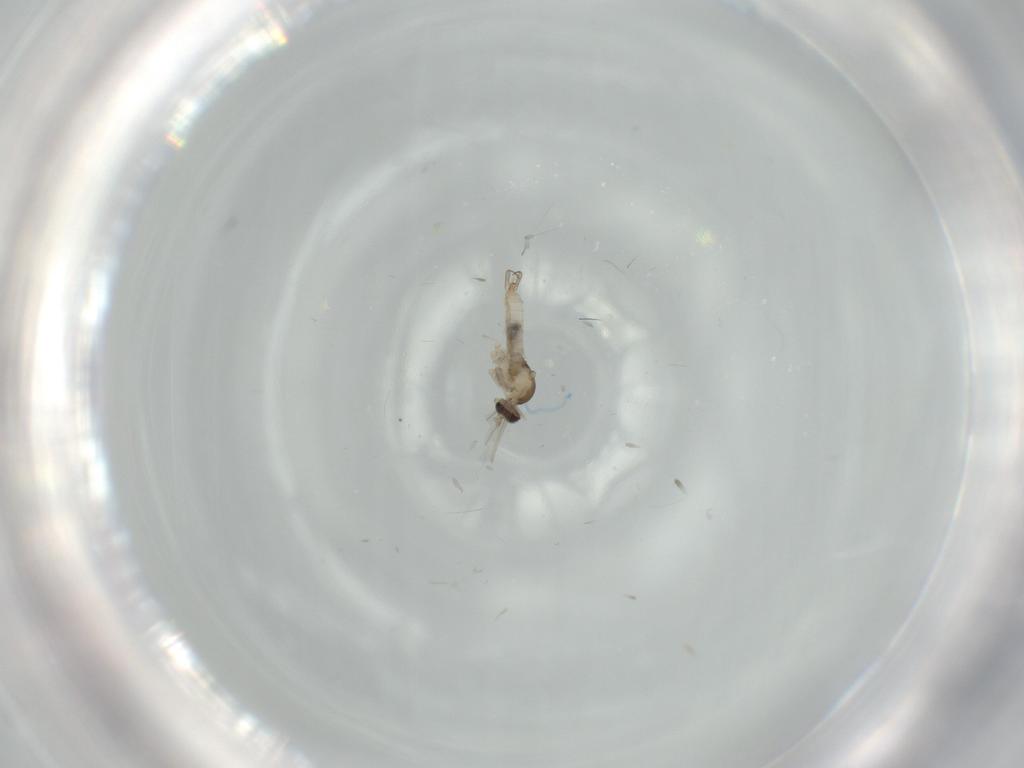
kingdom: Animalia
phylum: Arthropoda
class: Insecta
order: Diptera
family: Cecidomyiidae
